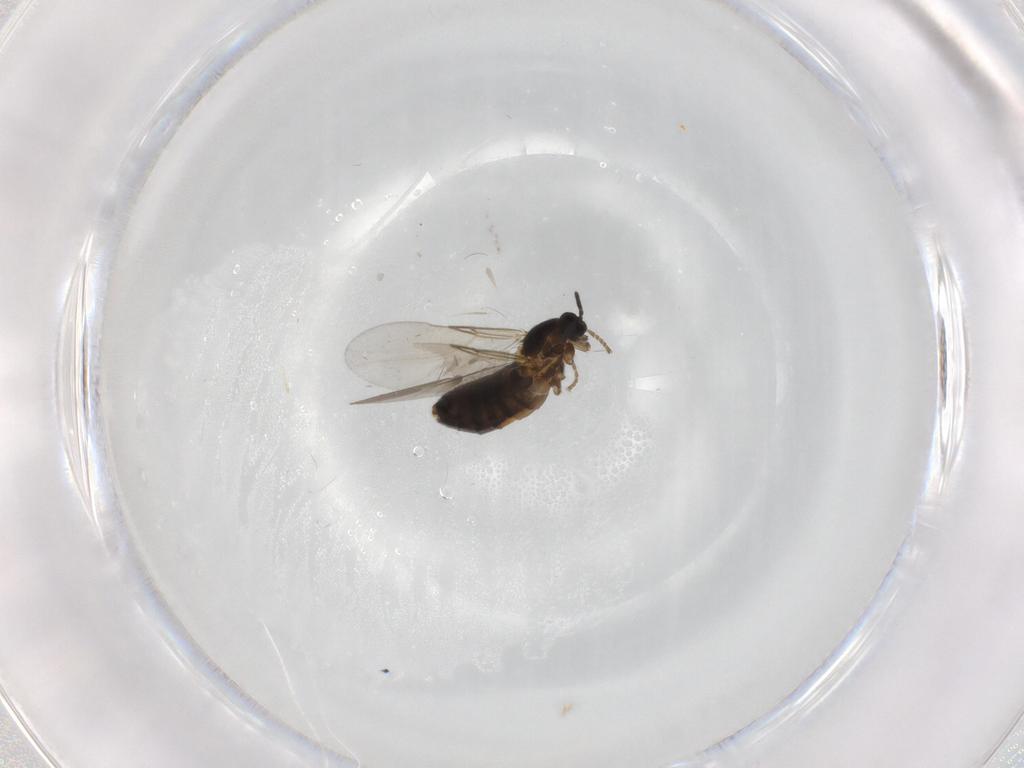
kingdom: Animalia
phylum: Arthropoda
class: Insecta
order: Diptera
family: Scatopsidae
